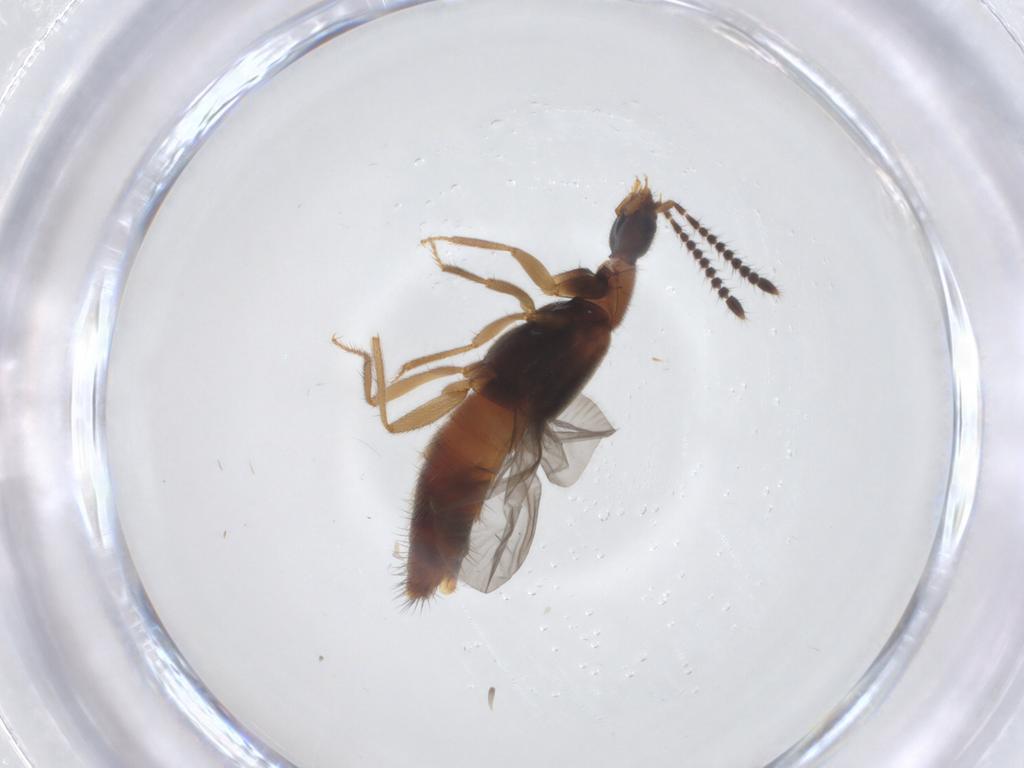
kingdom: Animalia
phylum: Arthropoda
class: Insecta
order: Coleoptera
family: Staphylinidae
